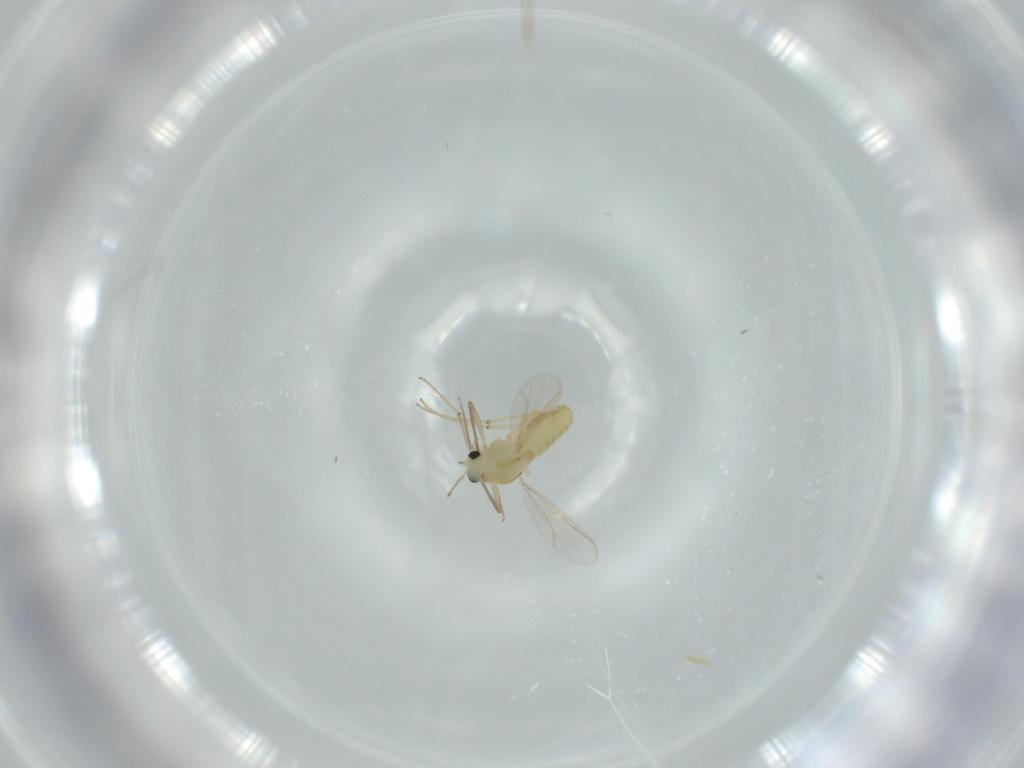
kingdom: Animalia
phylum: Arthropoda
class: Insecta
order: Diptera
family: Chironomidae
